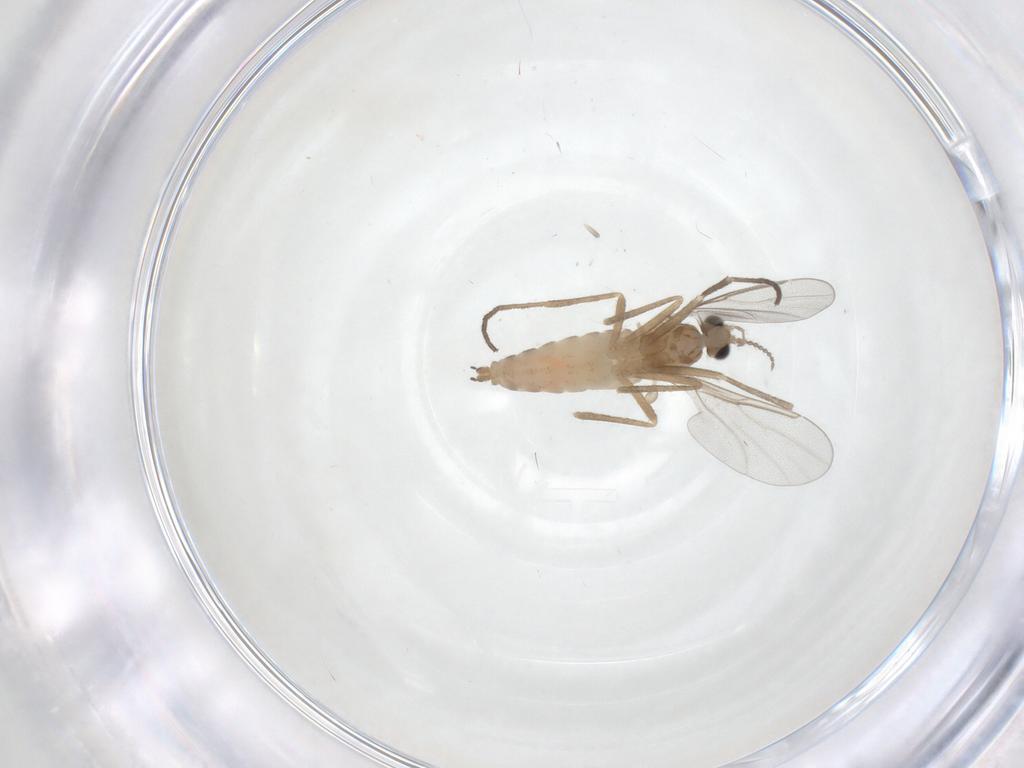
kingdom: Animalia
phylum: Arthropoda
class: Insecta
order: Diptera
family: Cecidomyiidae
